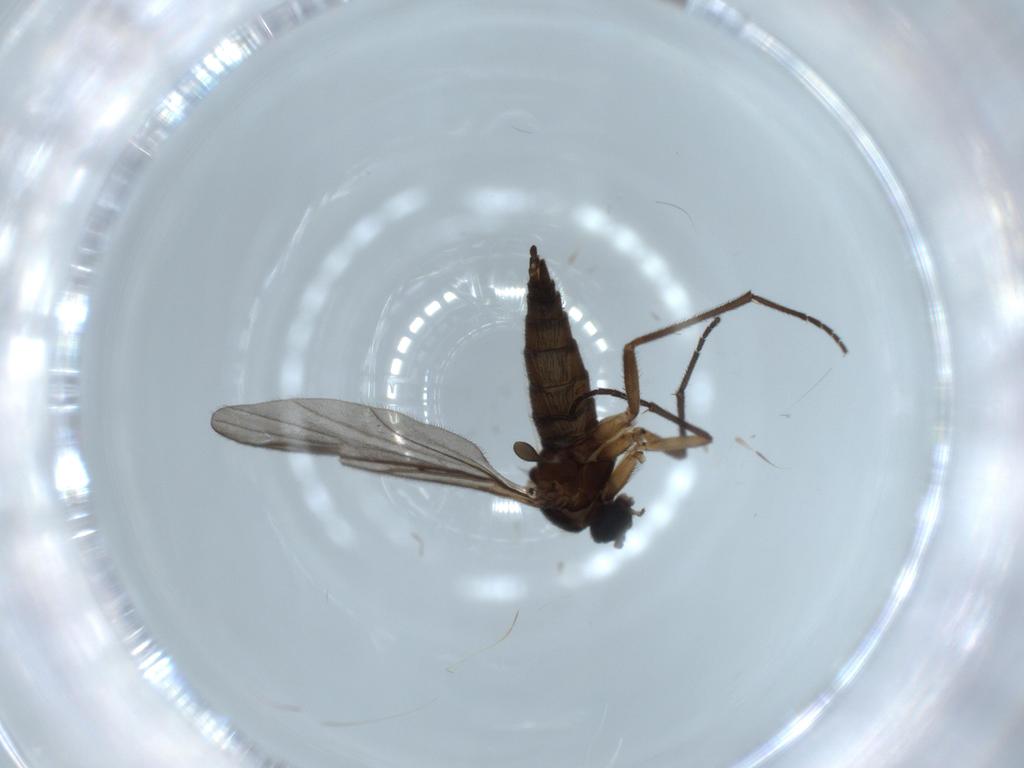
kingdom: Animalia
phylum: Arthropoda
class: Insecta
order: Diptera
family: Sciaridae
